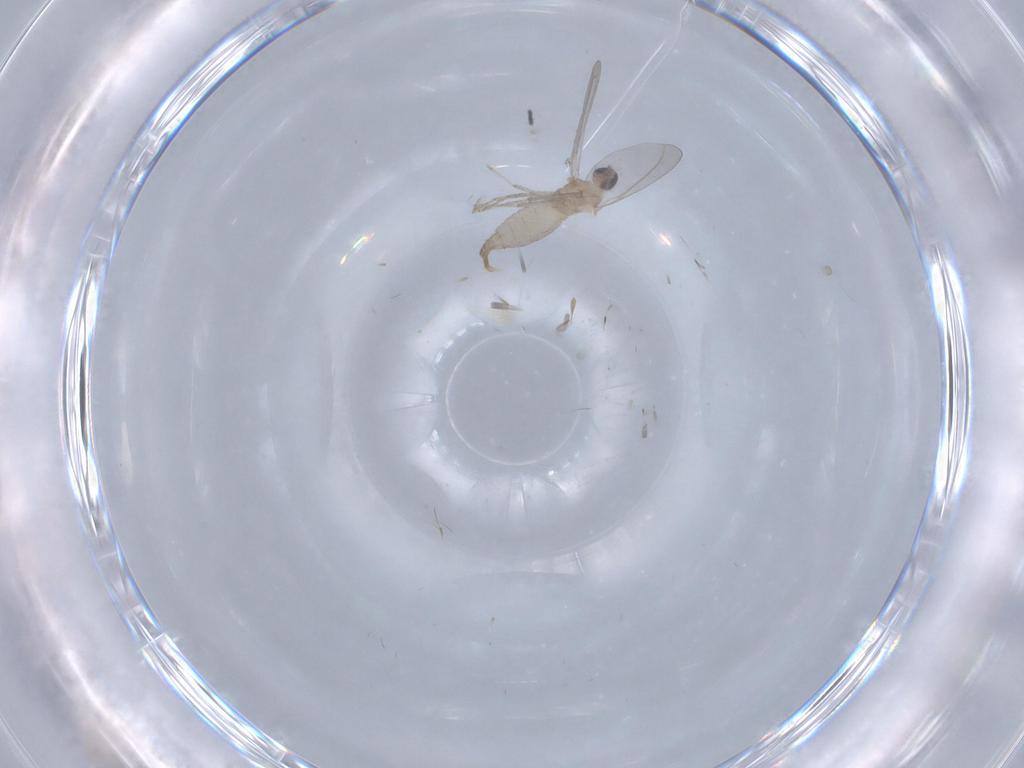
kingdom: Animalia
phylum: Arthropoda
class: Insecta
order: Diptera
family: Cecidomyiidae
